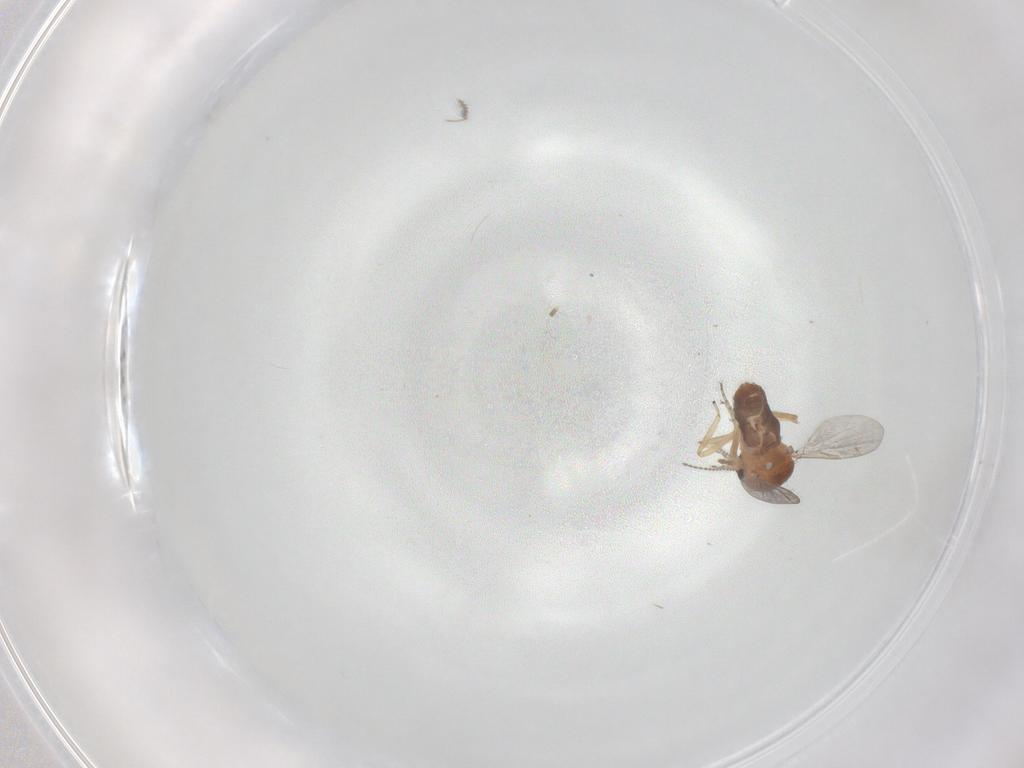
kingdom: Animalia
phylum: Arthropoda
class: Insecta
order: Diptera
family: Ceratopogonidae
